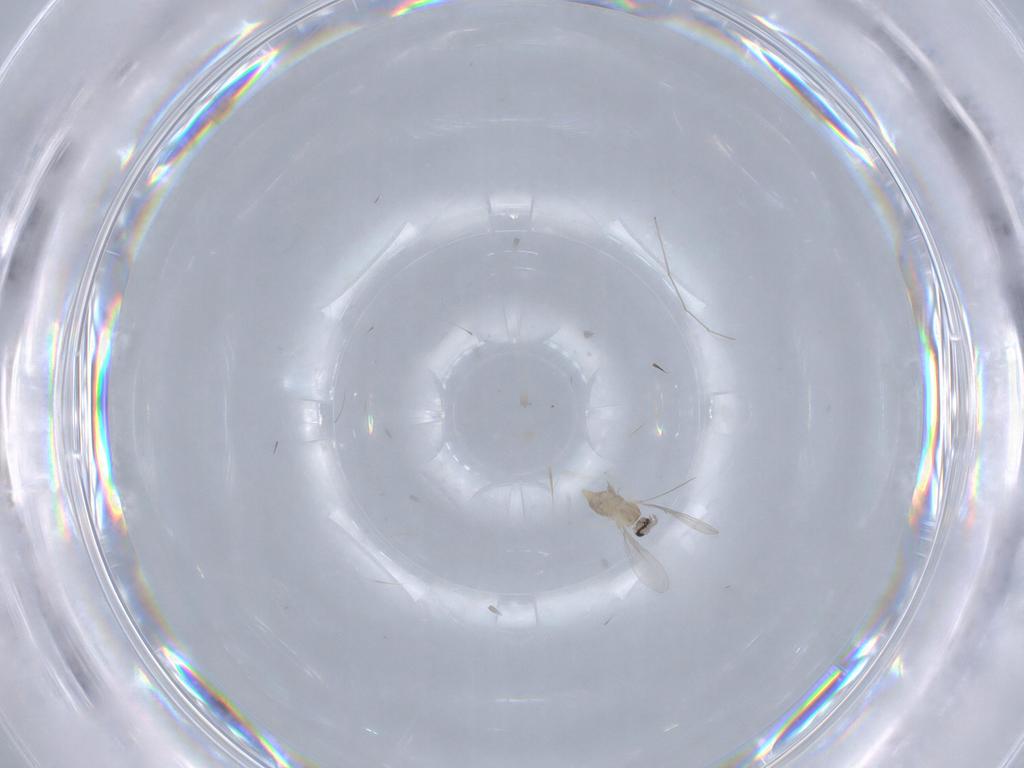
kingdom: Animalia
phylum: Arthropoda
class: Insecta
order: Diptera
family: Cecidomyiidae
